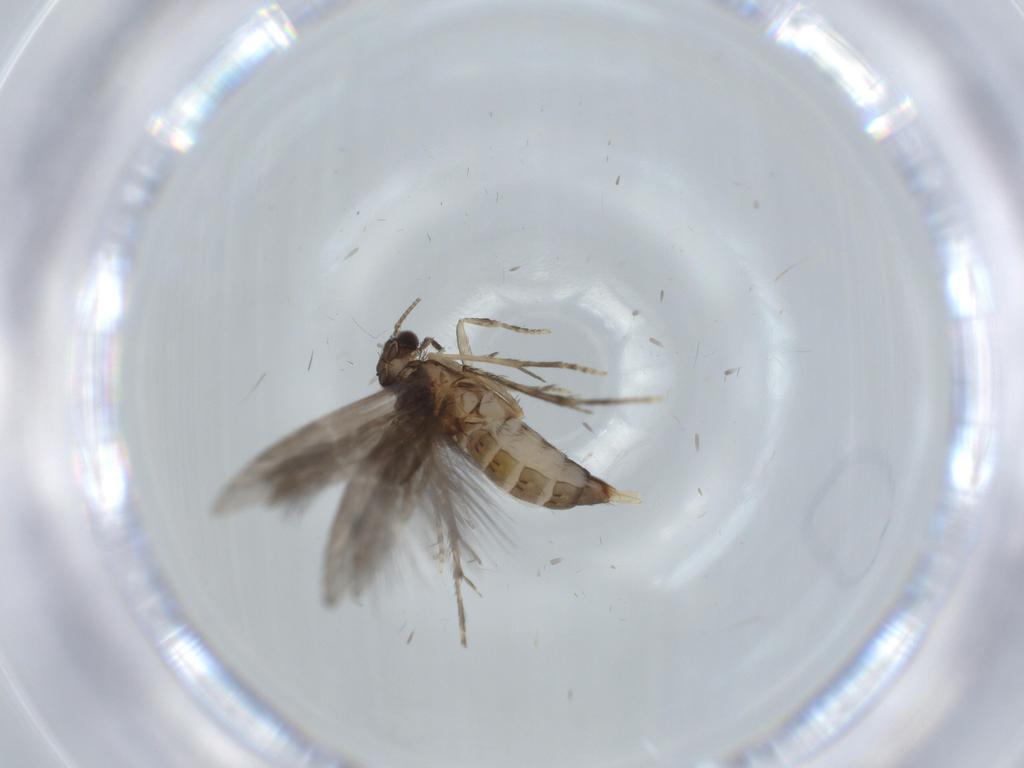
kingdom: Animalia
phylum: Arthropoda
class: Insecta
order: Trichoptera
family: Hydroptilidae
